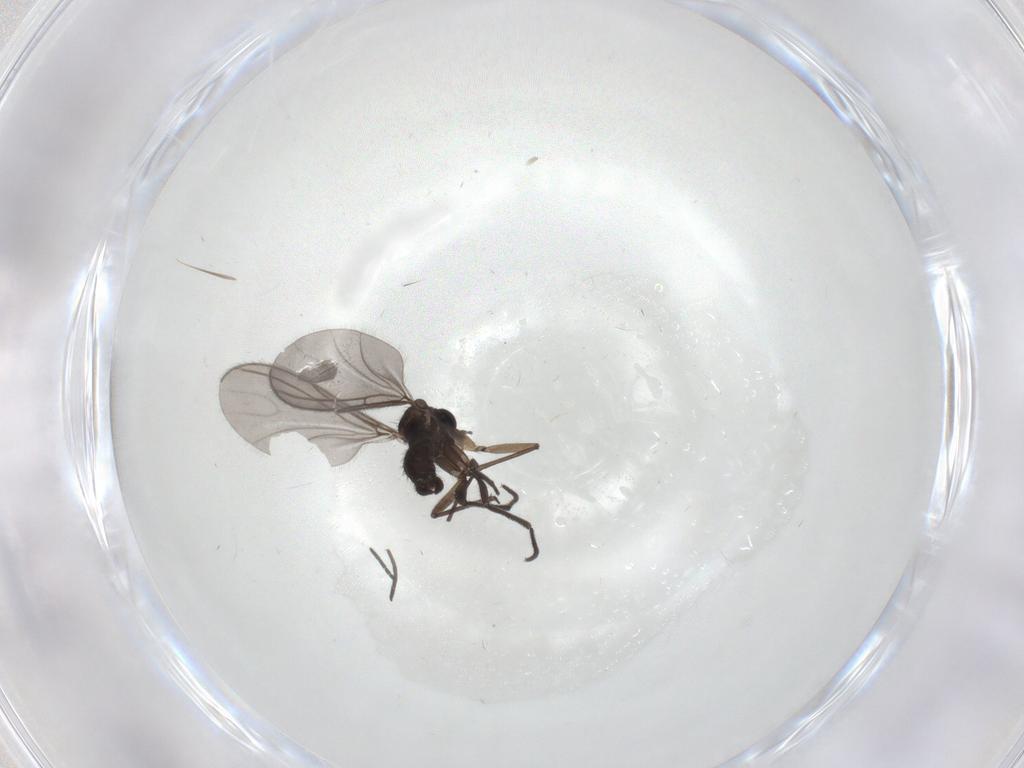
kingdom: Animalia
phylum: Arthropoda
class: Insecta
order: Diptera
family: Sciaridae
